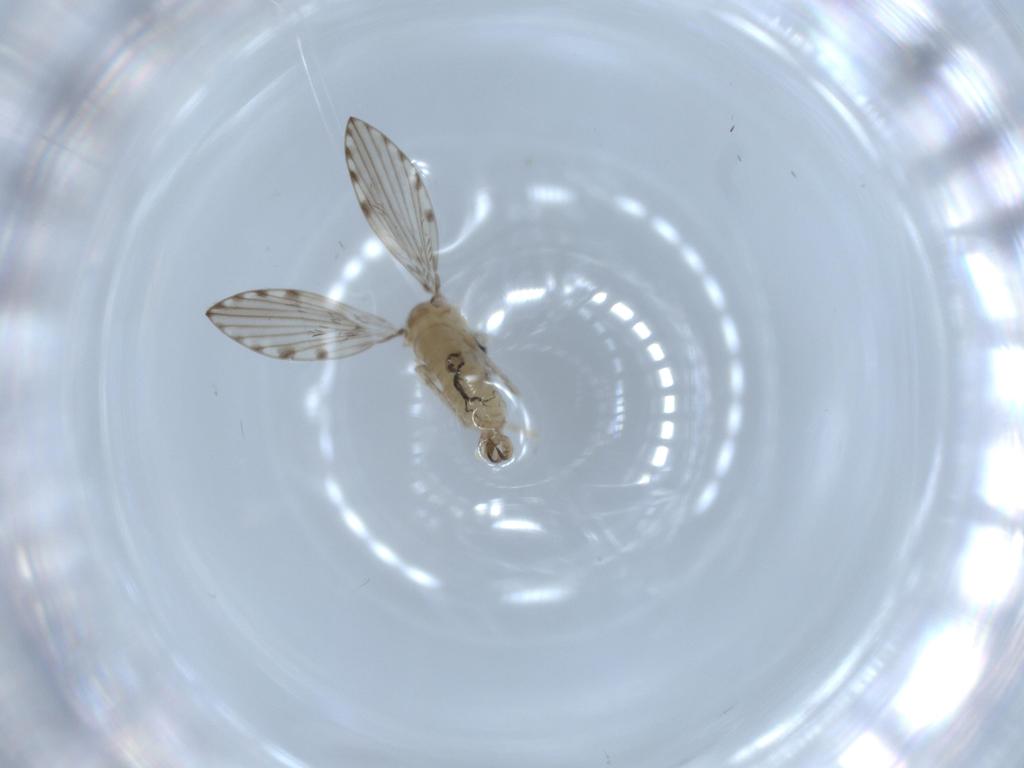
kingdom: Animalia
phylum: Arthropoda
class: Insecta
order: Diptera
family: Psychodidae
